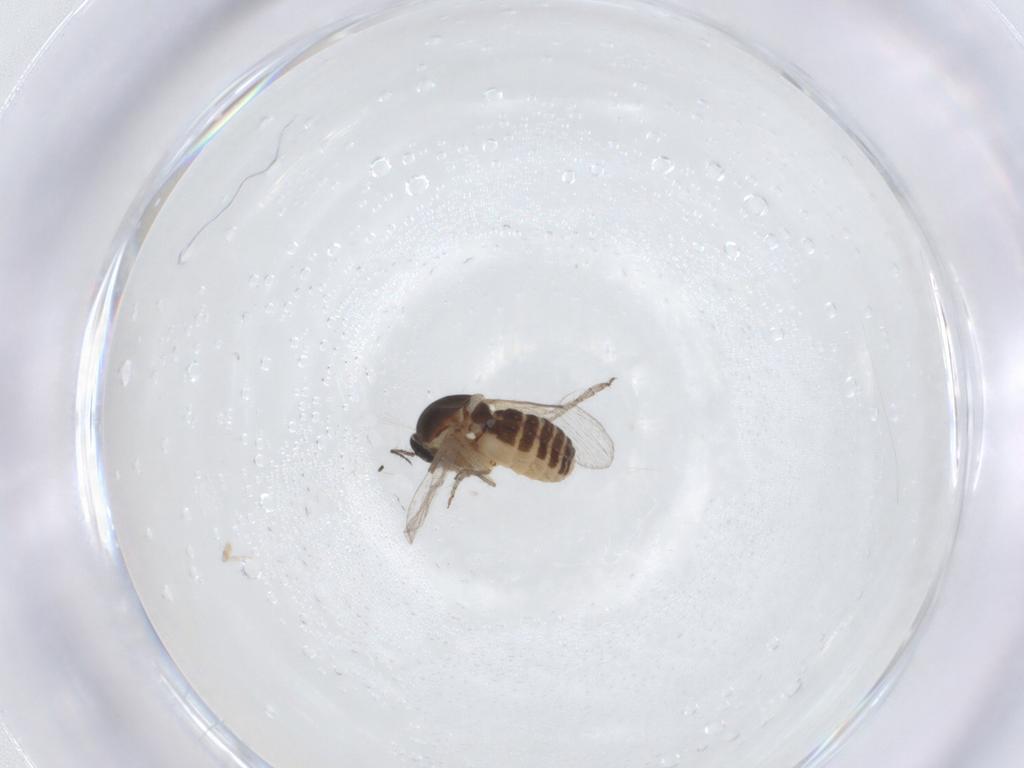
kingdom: Animalia
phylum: Arthropoda
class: Insecta
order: Diptera
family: Ceratopogonidae
